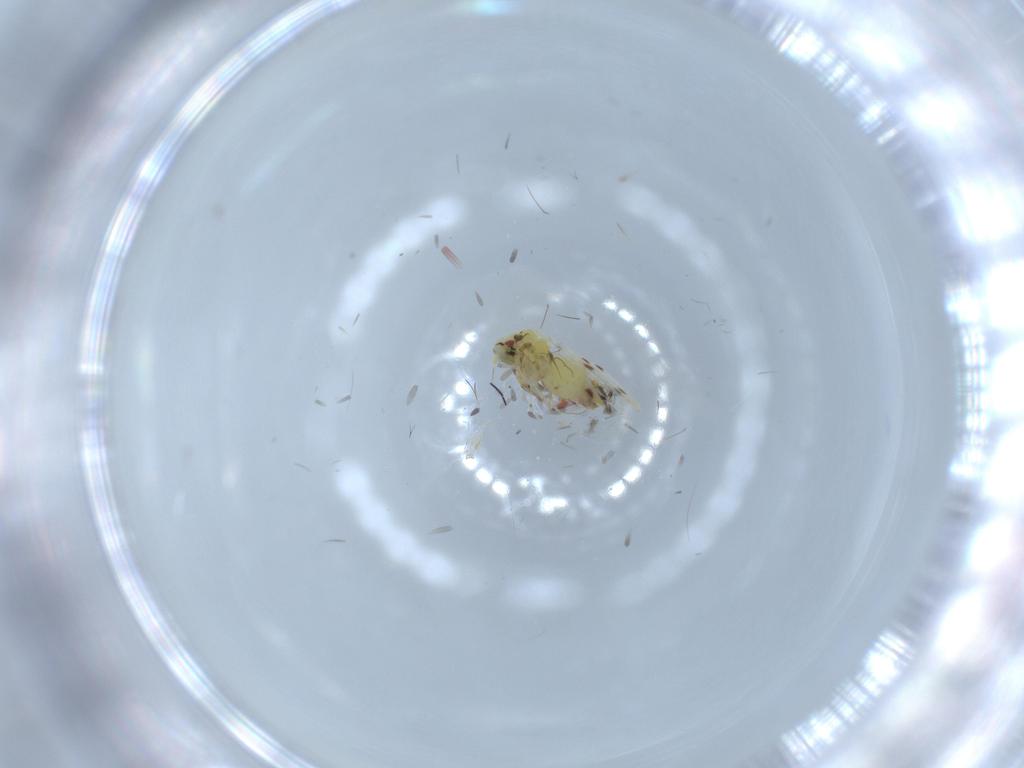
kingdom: Animalia
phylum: Arthropoda
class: Insecta
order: Hemiptera
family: Aleyrodidae
